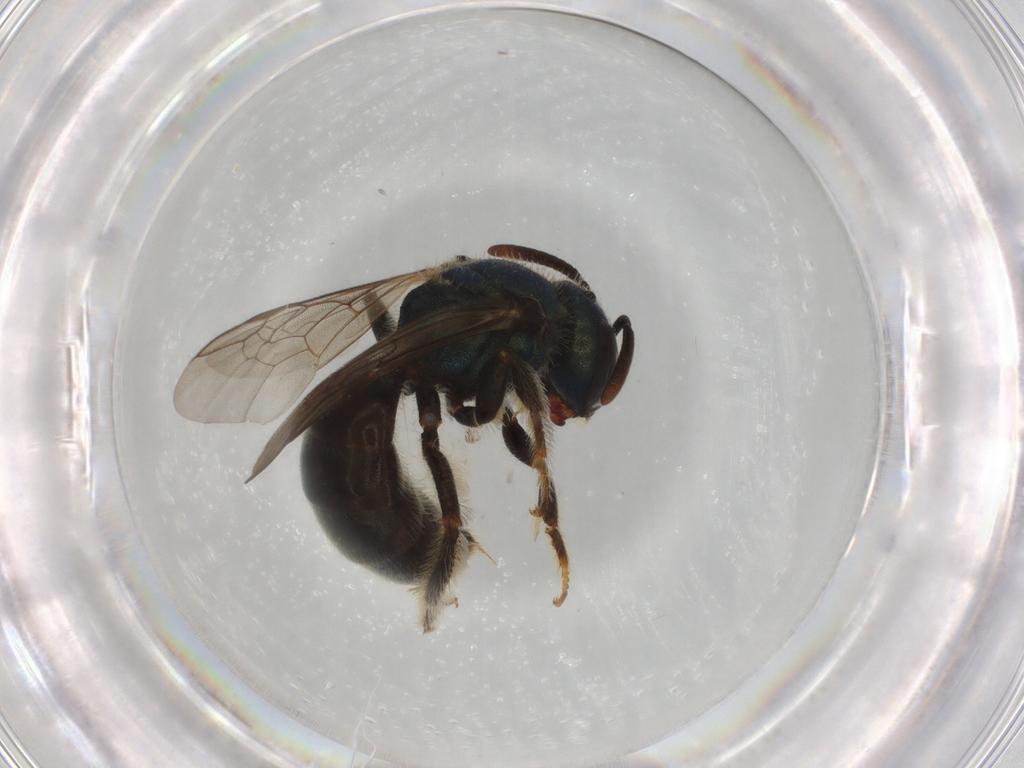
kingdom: Animalia
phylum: Arthropoda
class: Insecta
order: Hymenoptera
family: Halictidae
